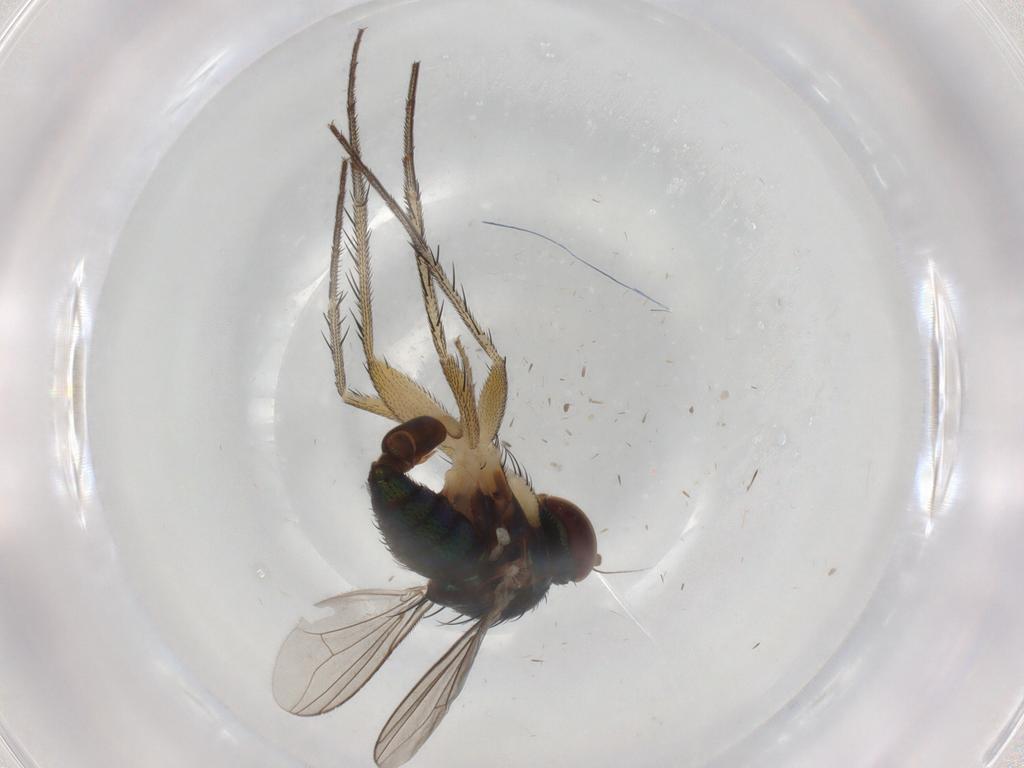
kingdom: Animalia
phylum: Arthropoda
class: Insecta
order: Diptera
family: Dolichopodidae
